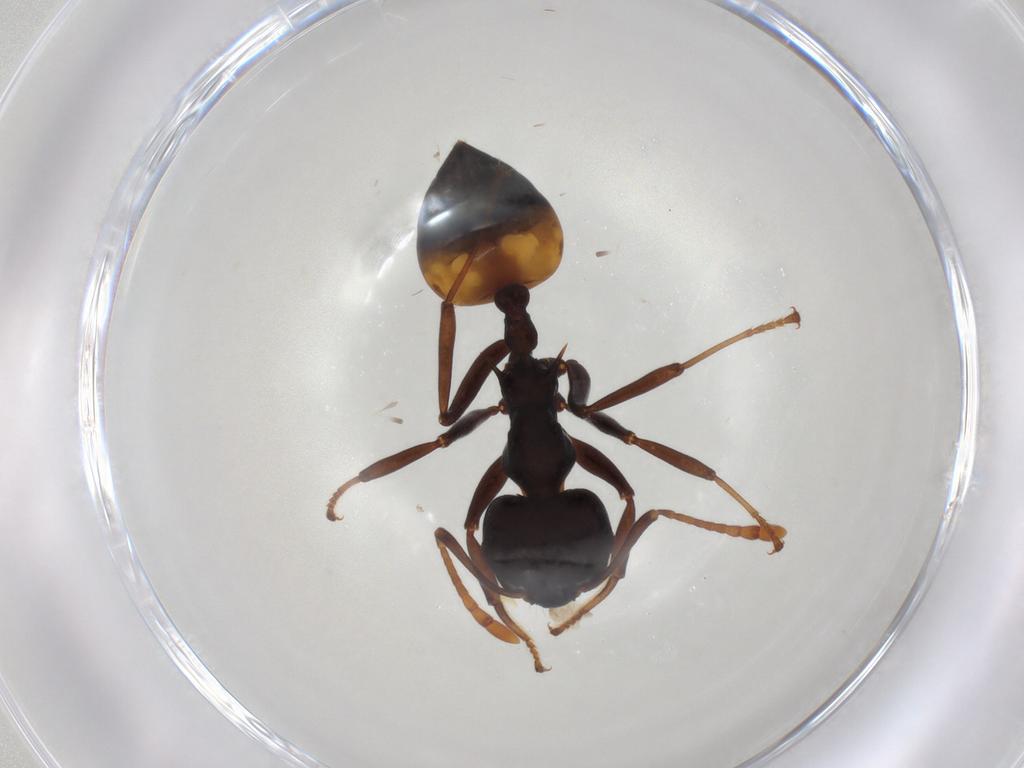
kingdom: Animalia
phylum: Arthropoda
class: Insecta
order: Hymenoptera
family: Formicidae
